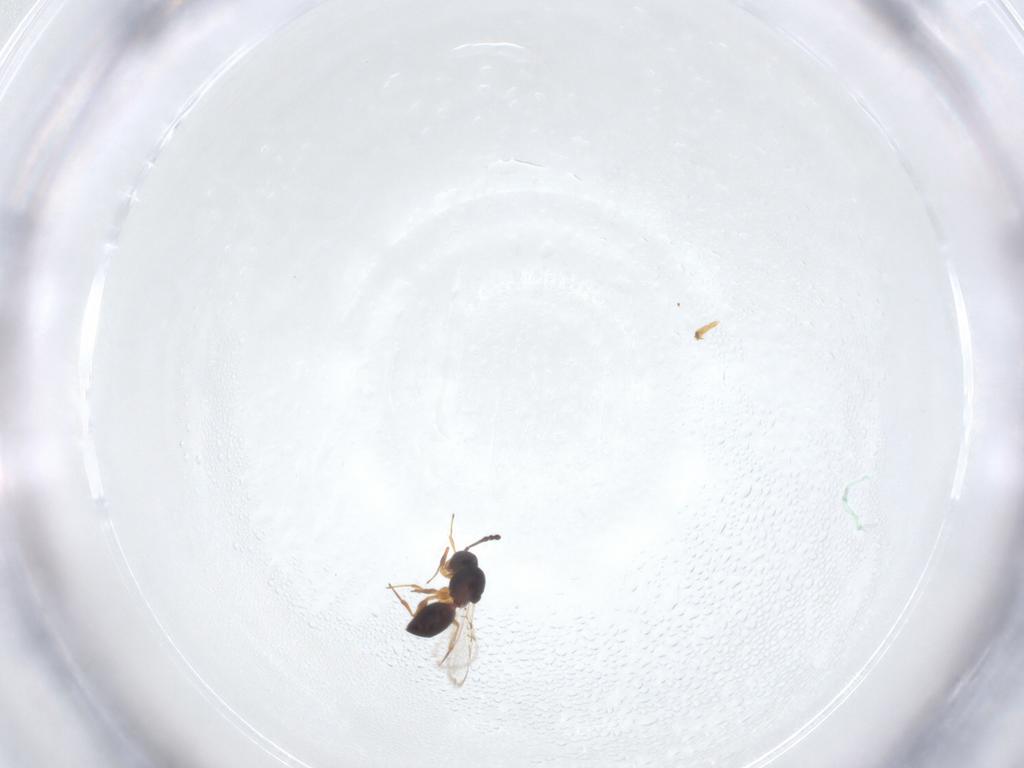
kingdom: Animalia
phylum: Arthropoda
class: Insecta
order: Hymenoptera
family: Figitidae
